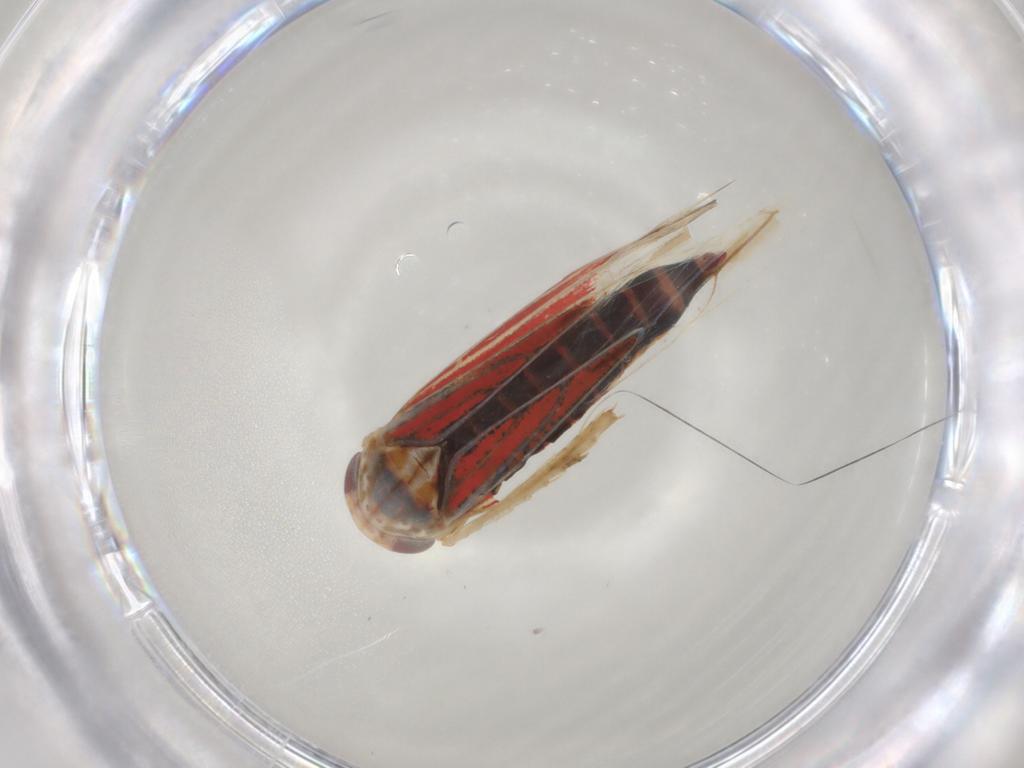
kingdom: Animalia
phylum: Arthropoda
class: Insecta
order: Hemiptera
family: Cicadellidae
